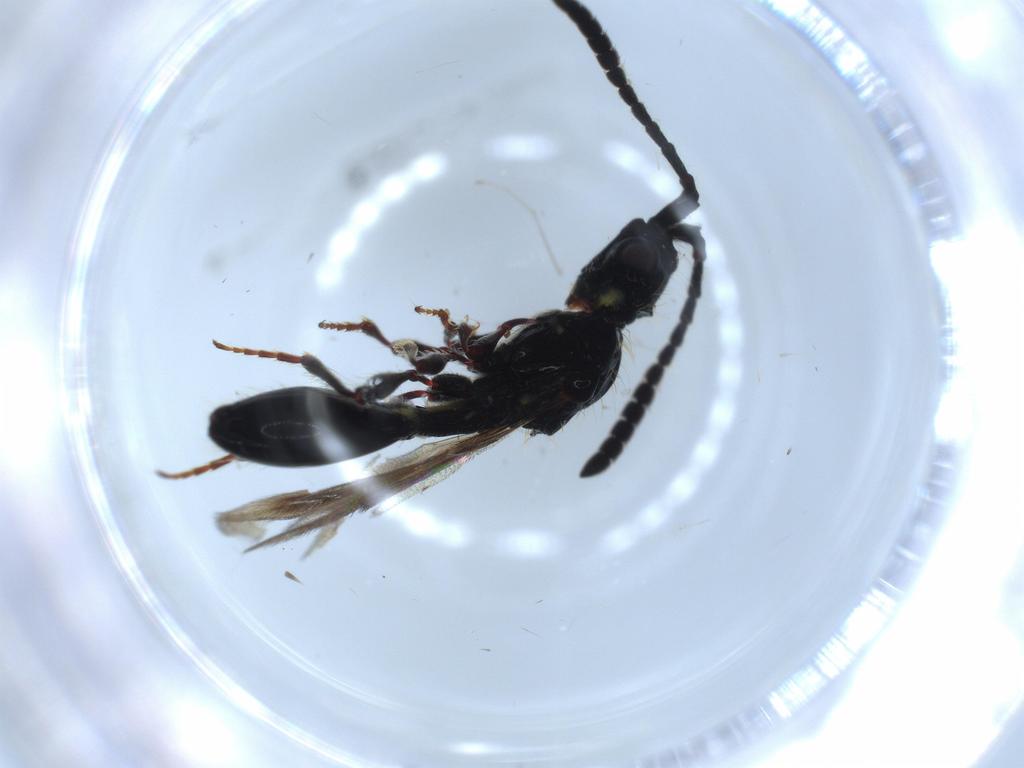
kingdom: Animalia
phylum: Arthropoda
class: Insecta
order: Hymenoptera
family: Diapriidae
